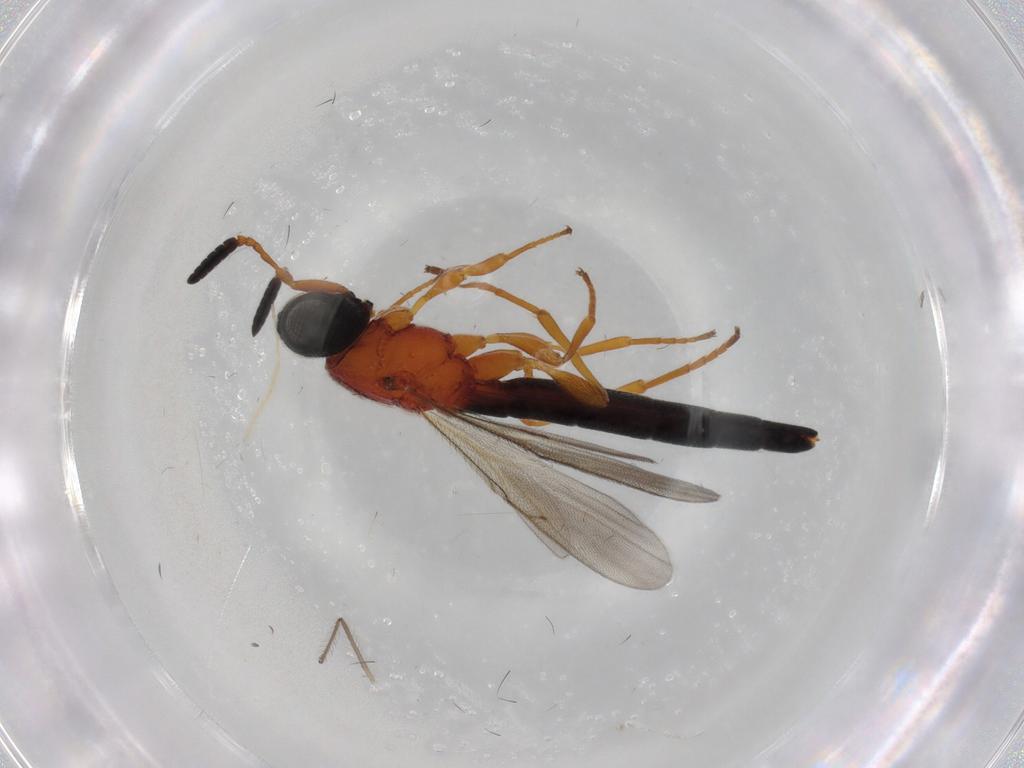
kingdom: Animalia
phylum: Arthropoda
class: Insecta
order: Hymenoptera
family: Scelionidae
